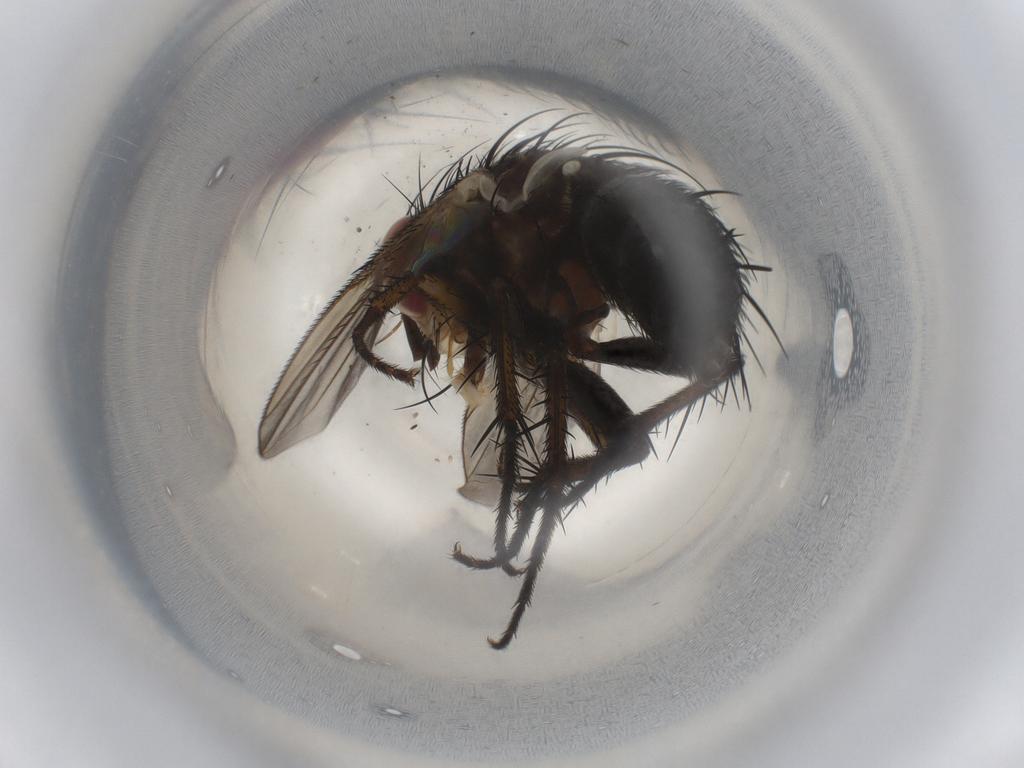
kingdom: Animalia
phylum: Arthropoda
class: Insecta
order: Diptera
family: Tachinidae
